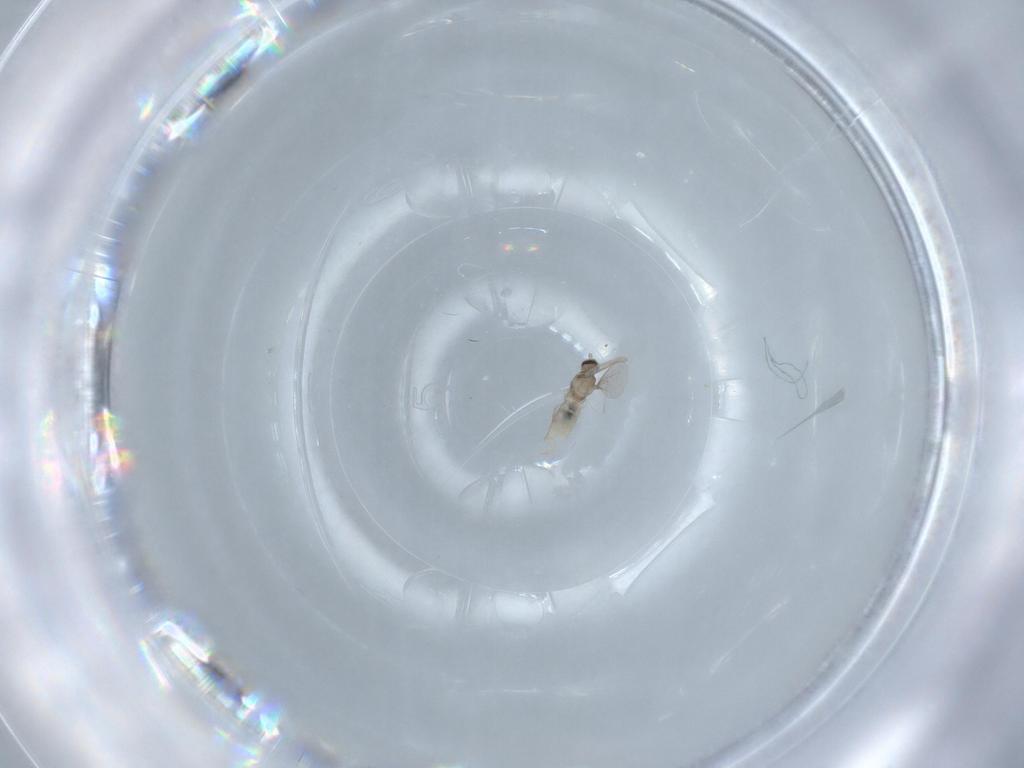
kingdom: Animalia
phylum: Arthropoda
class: Insecta
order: Diptera
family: Cecidomyiidae
